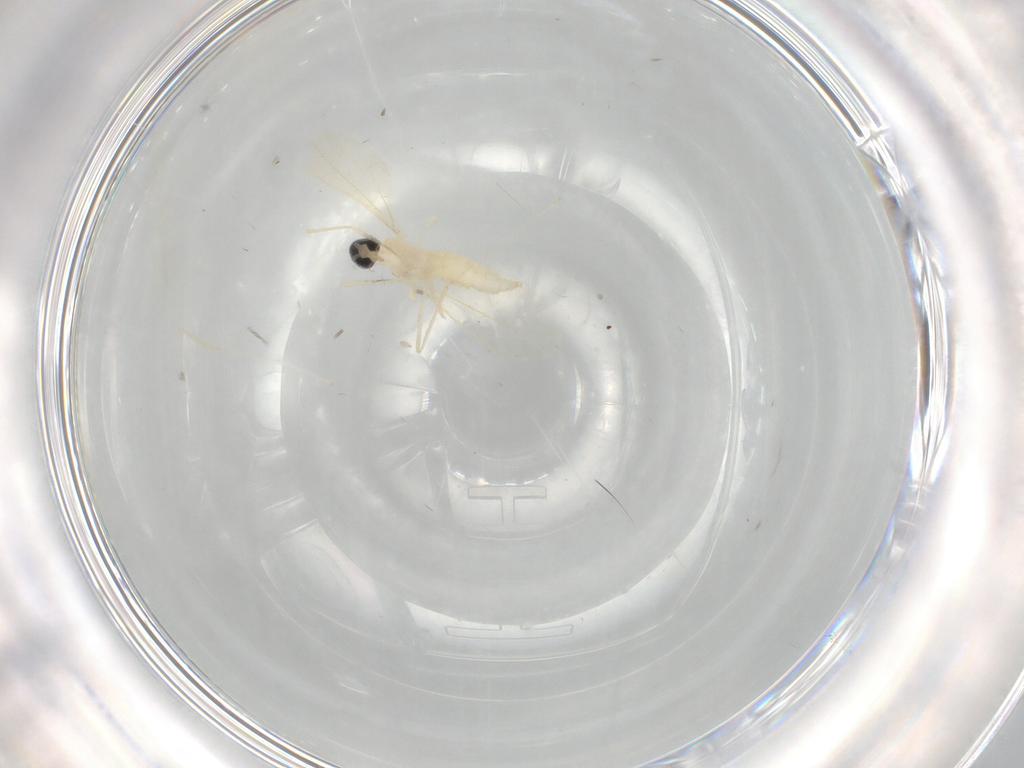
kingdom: Animalia
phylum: Arthropoda
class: Insecta
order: Diptera
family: Cecidomyiidae
